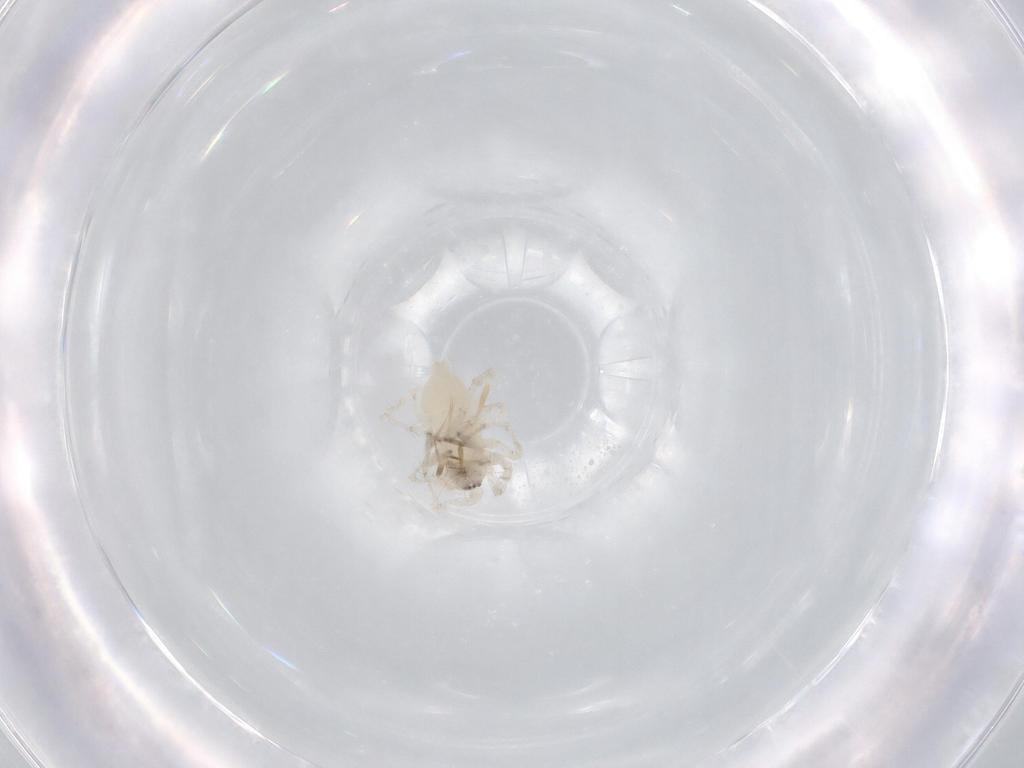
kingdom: Animalia
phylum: Arthropoda
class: Arachnida
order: Araneae
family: Anyphaenidae
